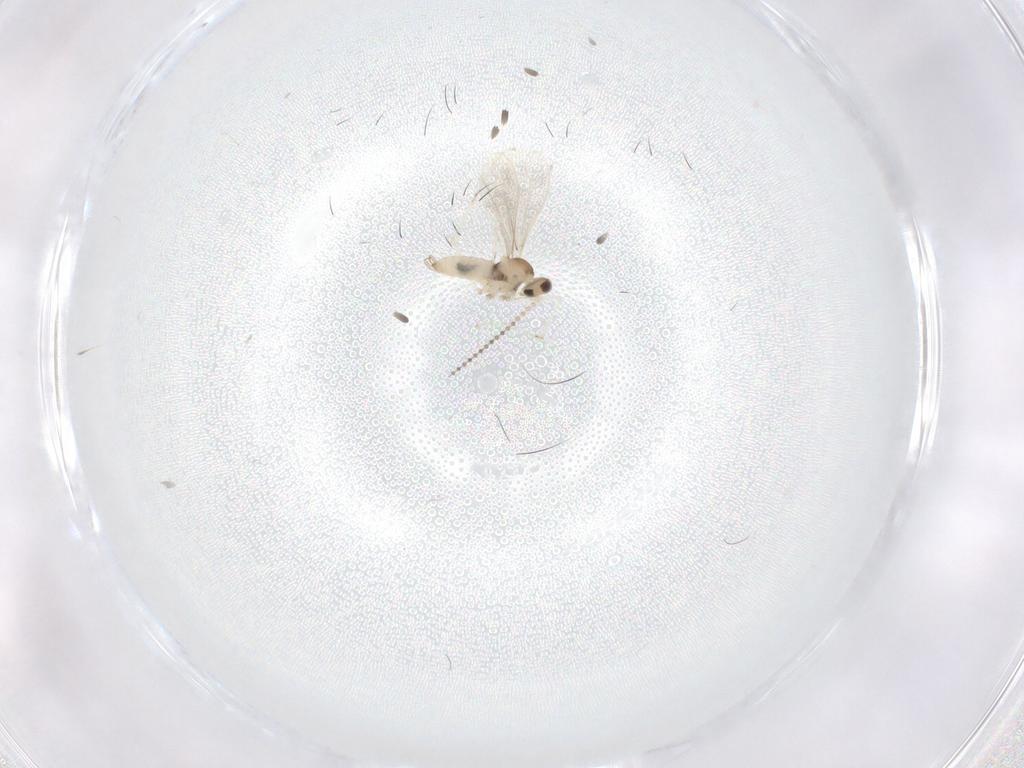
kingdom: Animalia
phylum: Arthropoda
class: Insecta
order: Diptera
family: Cecidomyiidae
